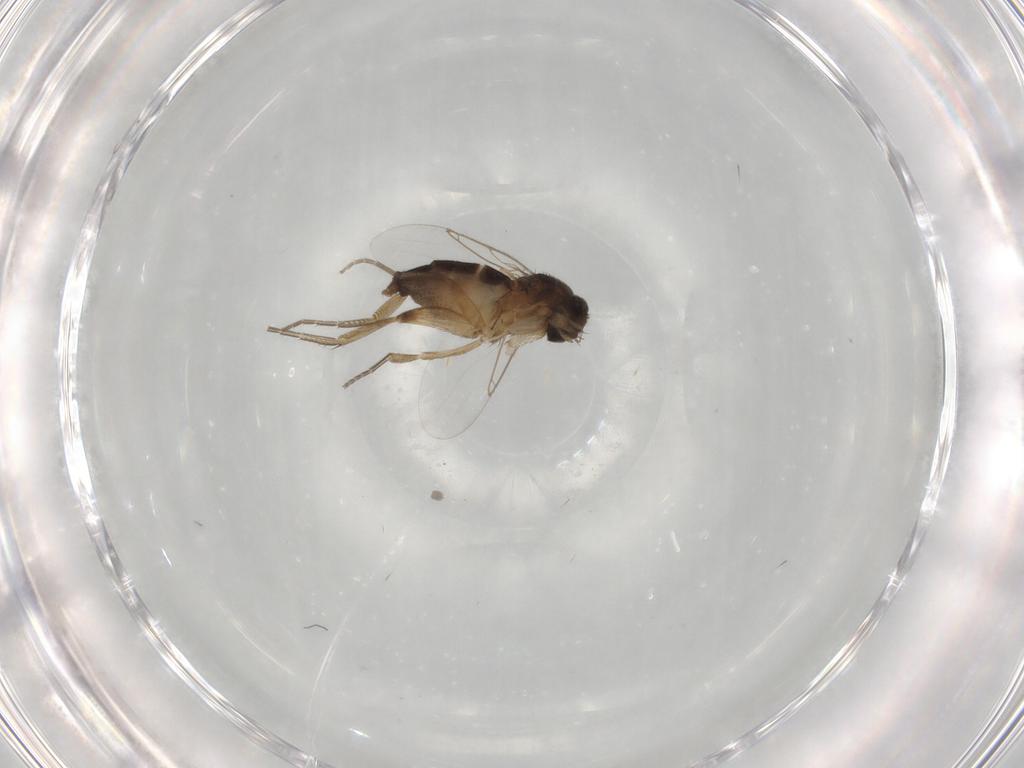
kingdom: Animalia
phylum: Arthropoda
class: Insecta
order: Diptera
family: Phoridae
